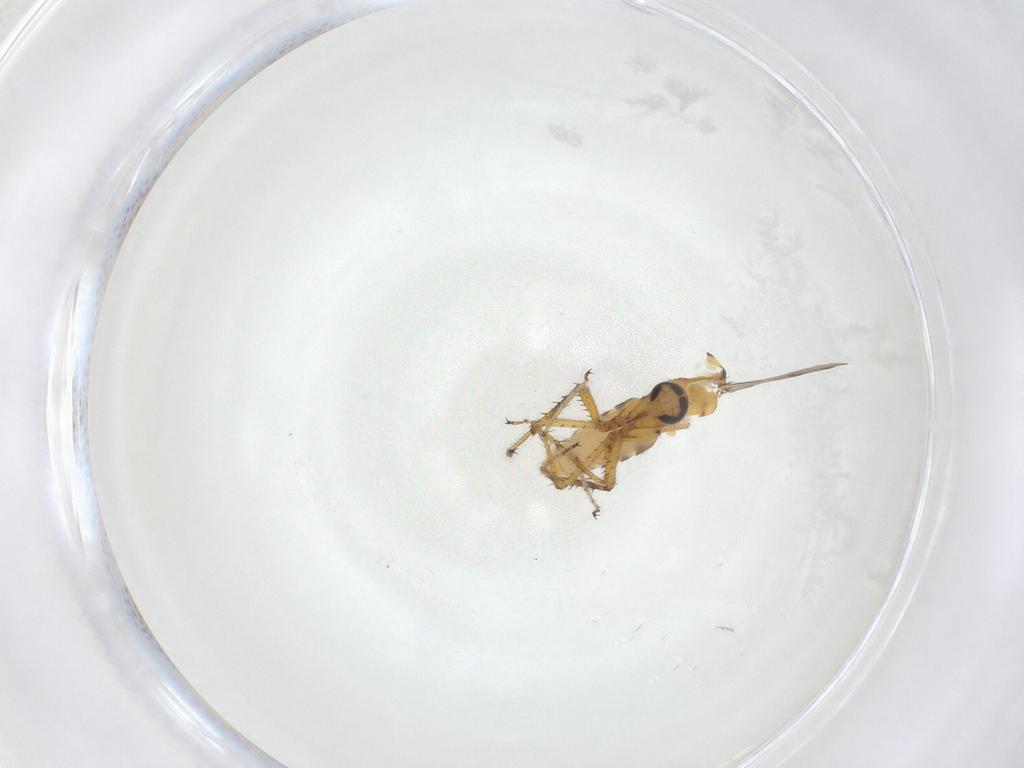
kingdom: Animalia
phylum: Arthropoda
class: Insecta
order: Diptera
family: Ceratopogonidae
